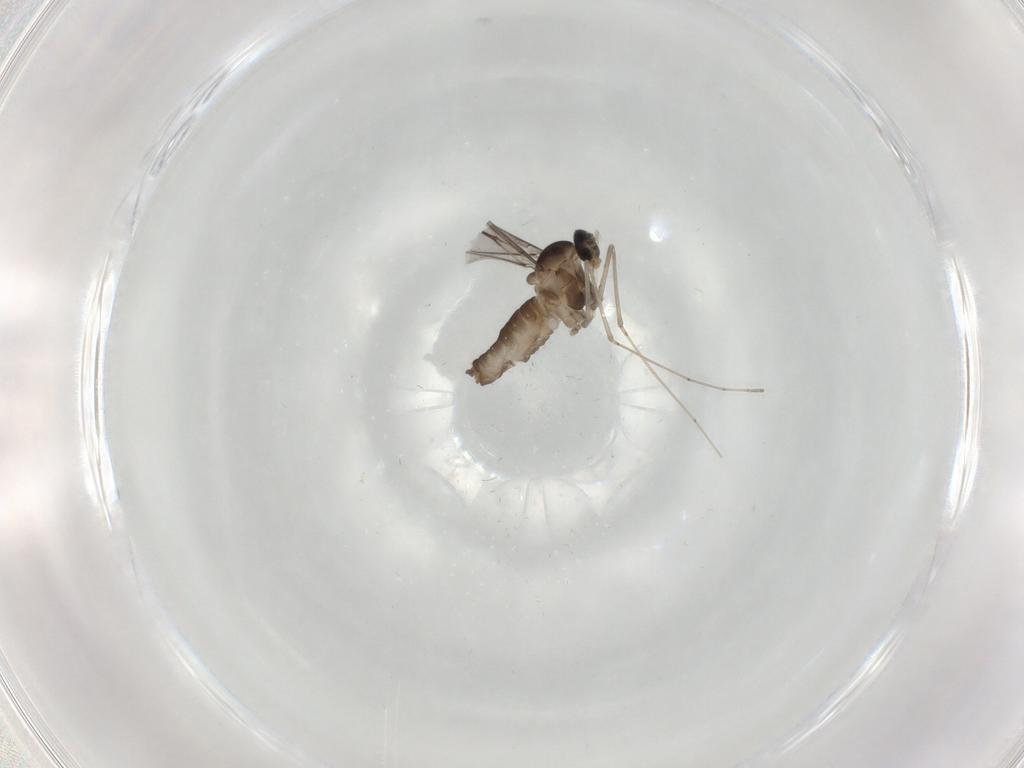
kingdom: Animalia
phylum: Arthropoda
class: Insecta
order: Diptera
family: Cecidomyiidae
